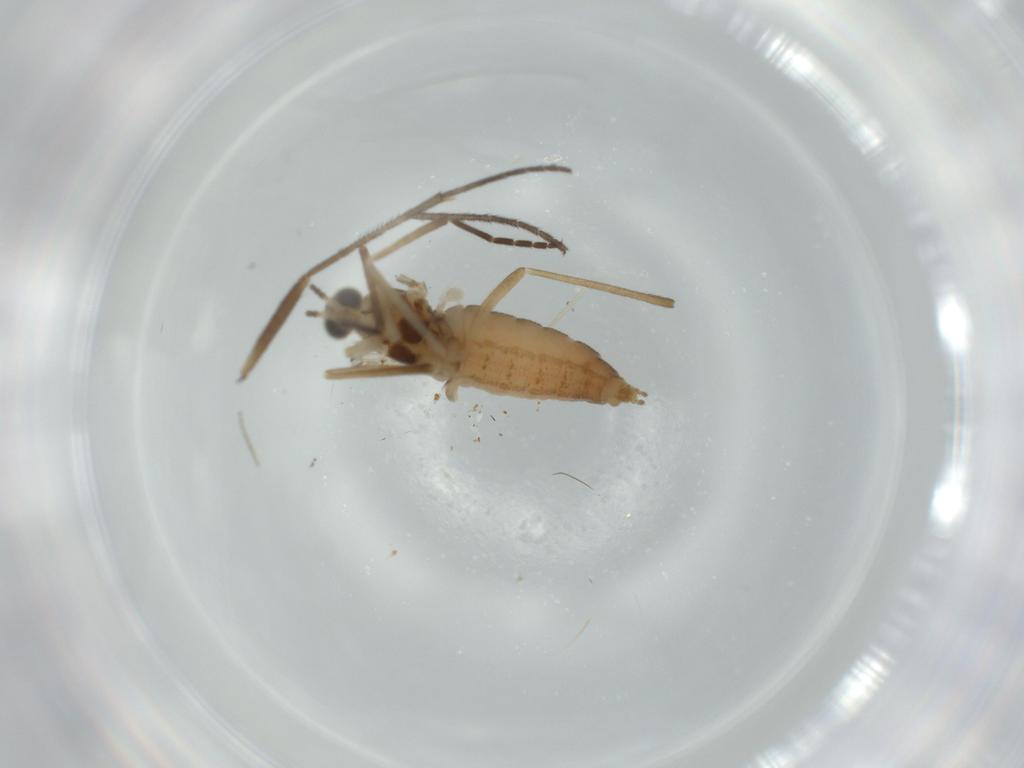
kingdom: Animalia
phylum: Arthropoda
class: Insecta
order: Diptera
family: Cecidomyiidae
